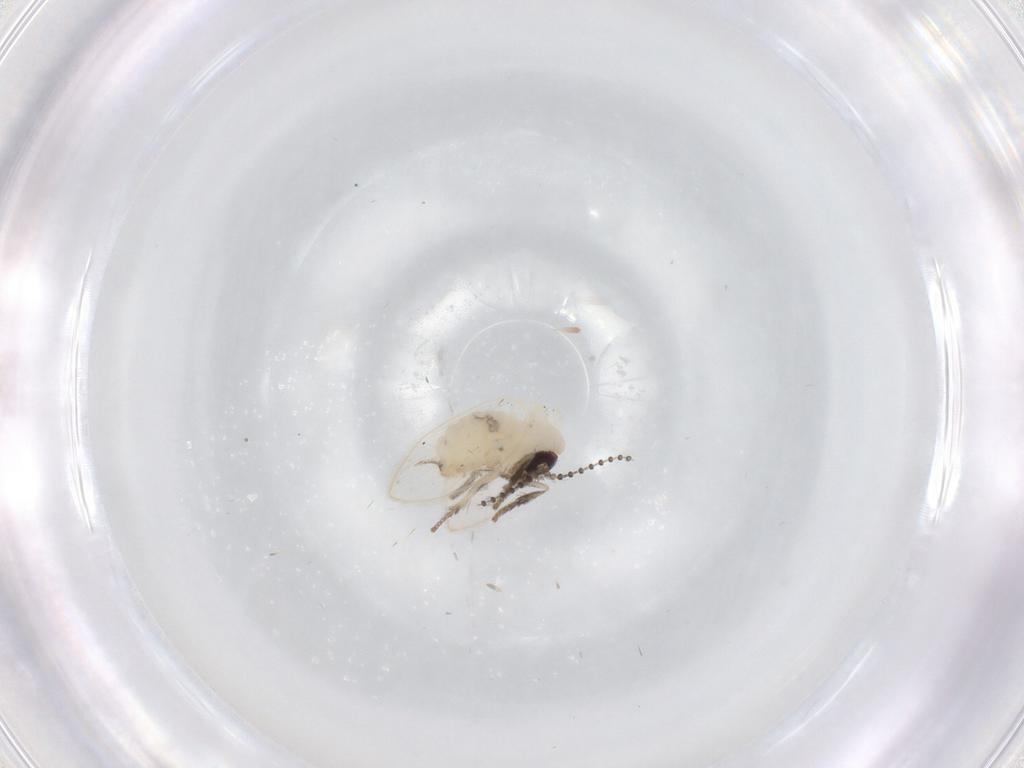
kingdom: Animalia
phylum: Arthropoda
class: Insecta
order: Diptera
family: Psychodidae
